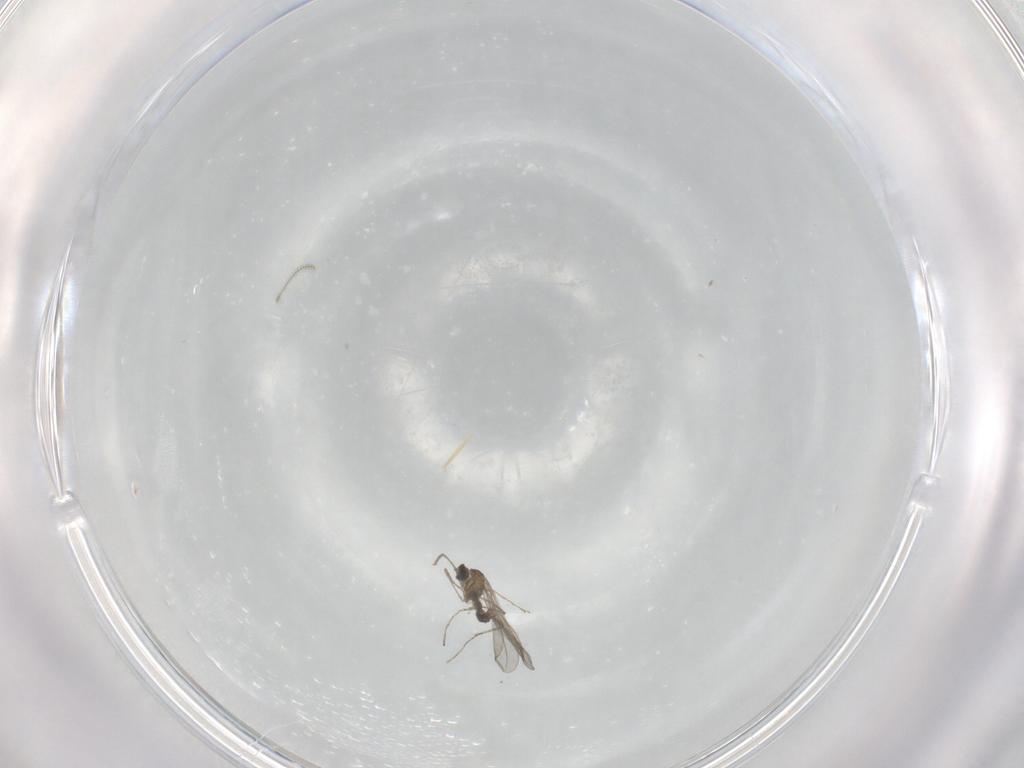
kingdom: Animalia
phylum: Arthropoda
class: Insecta
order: Diptera
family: Chironomidae
